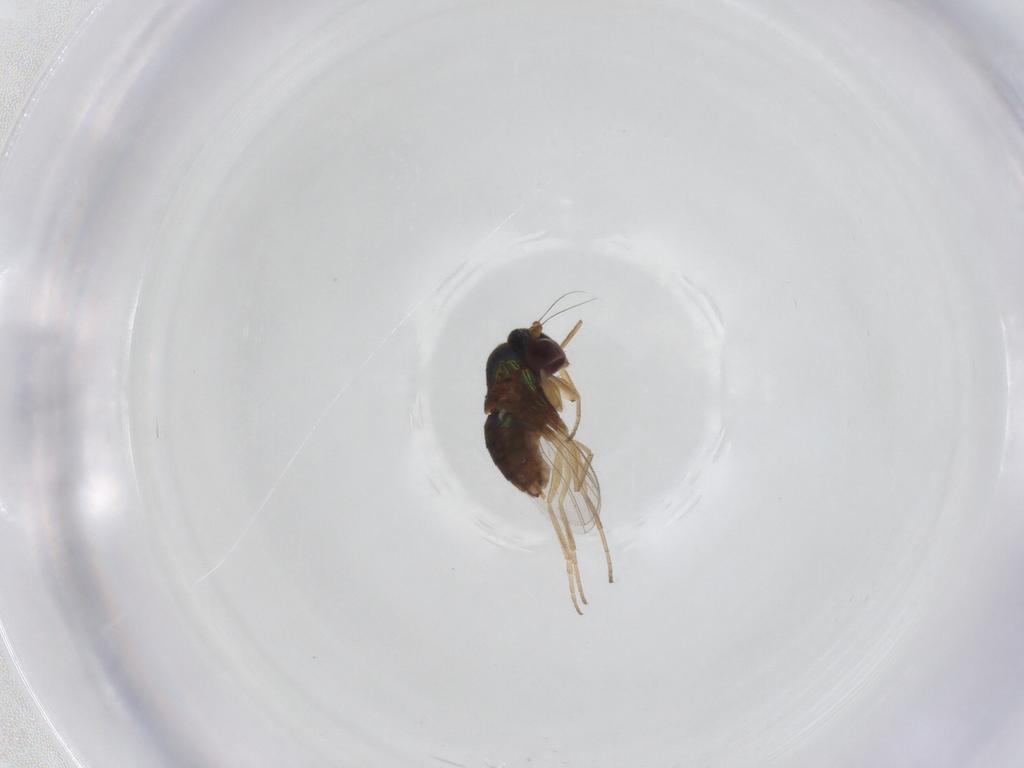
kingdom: Animalia
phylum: Arthropoda
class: Insecta
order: Diptera
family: Dolichopodidae
